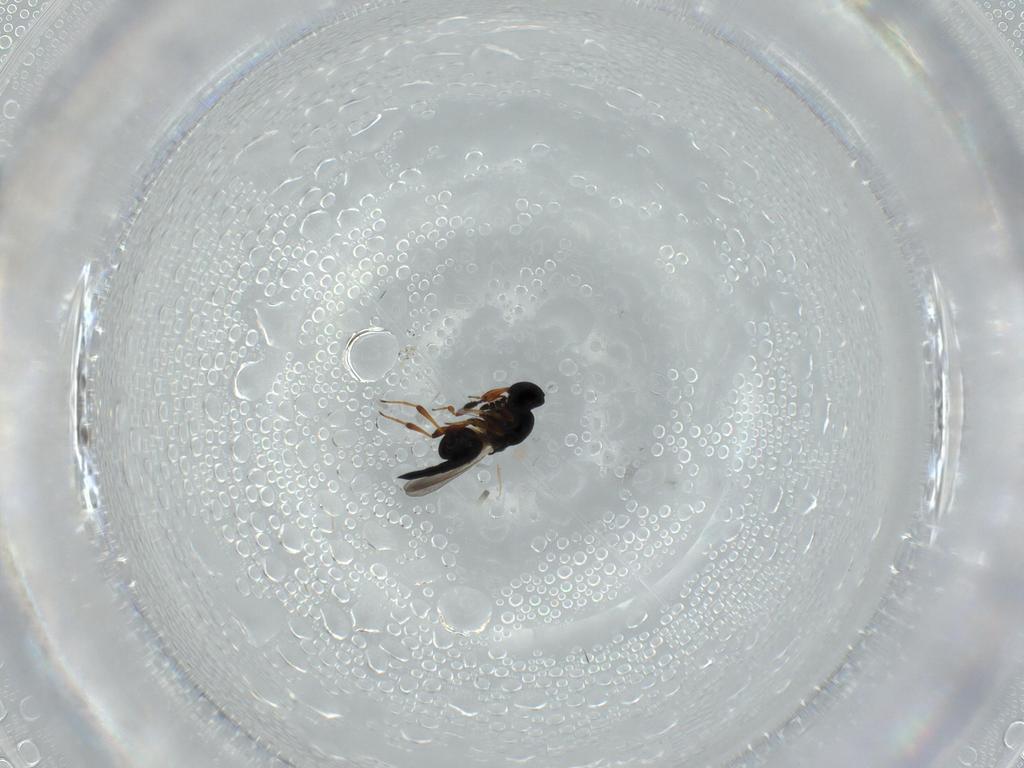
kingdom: Animalia
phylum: Arthropoda
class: Insecta
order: Hymenoptera
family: Platygastridae
